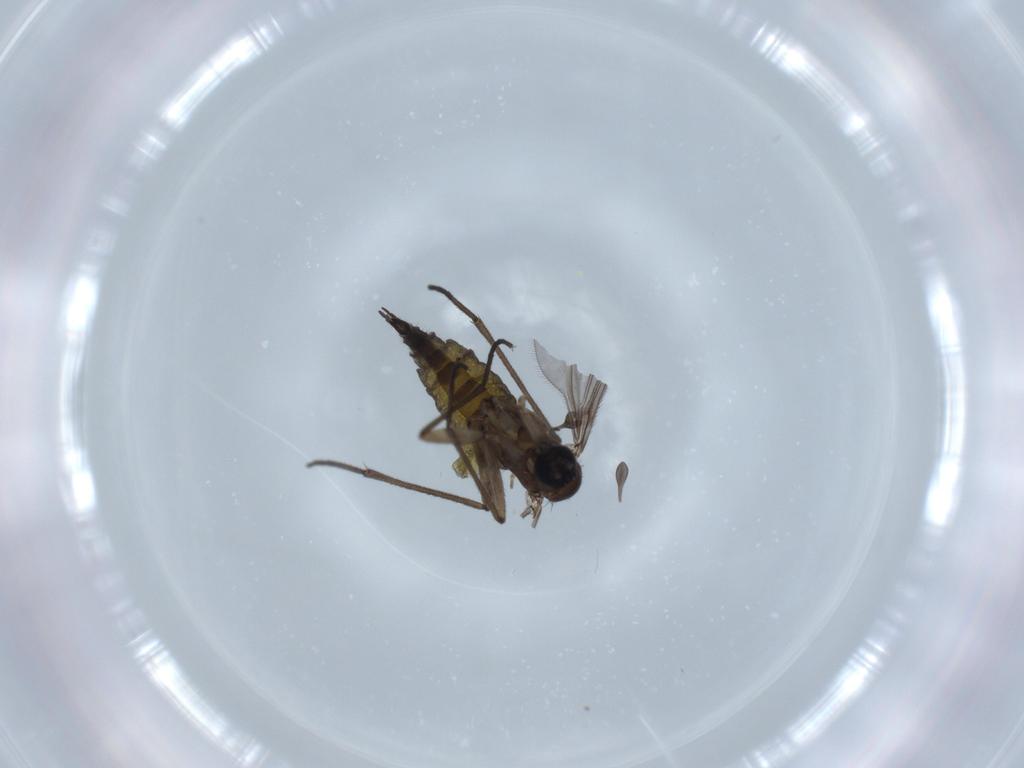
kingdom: Animalia
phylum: Arthropoda
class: Insecta
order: Diptera
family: Sciaridae
